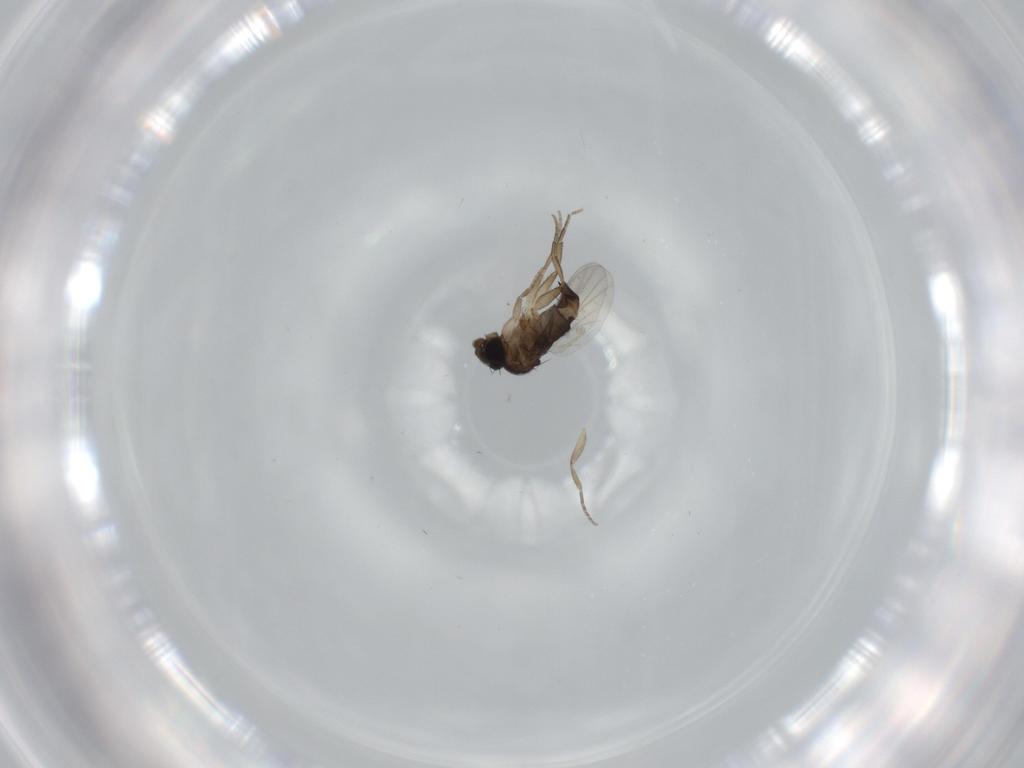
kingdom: Animalia
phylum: Arthropoda
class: Insecta
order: Diptera
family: Phoridae
